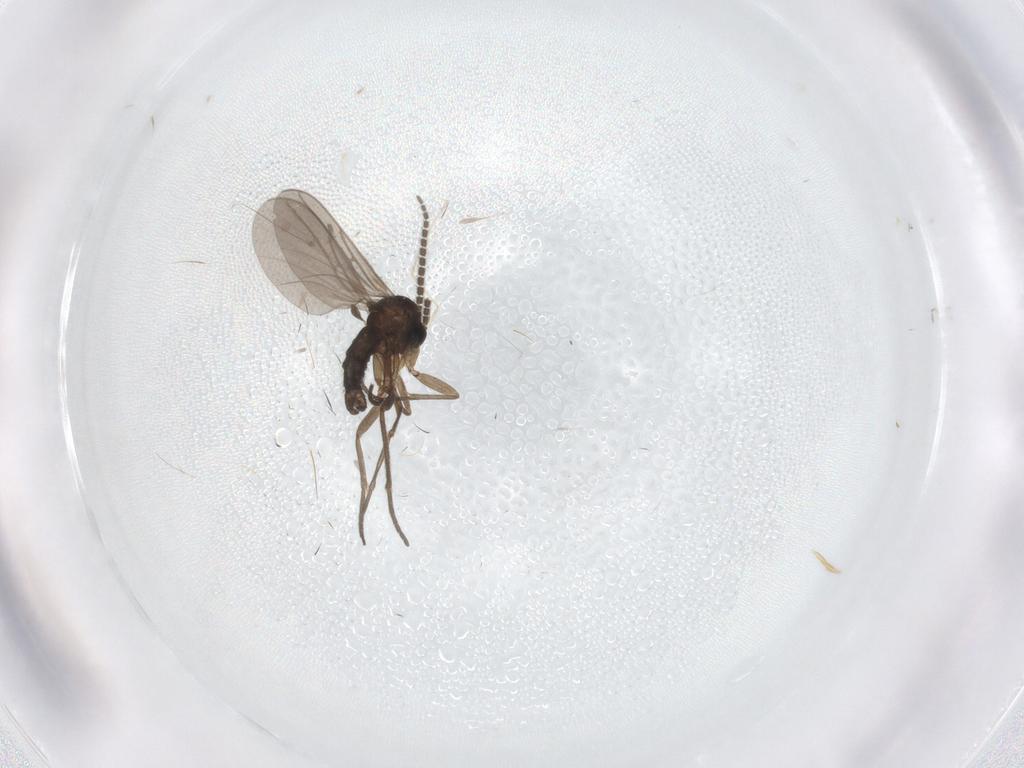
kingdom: Animalia
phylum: Arthropoda
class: Insecta
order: Diptera
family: Sciaridae
